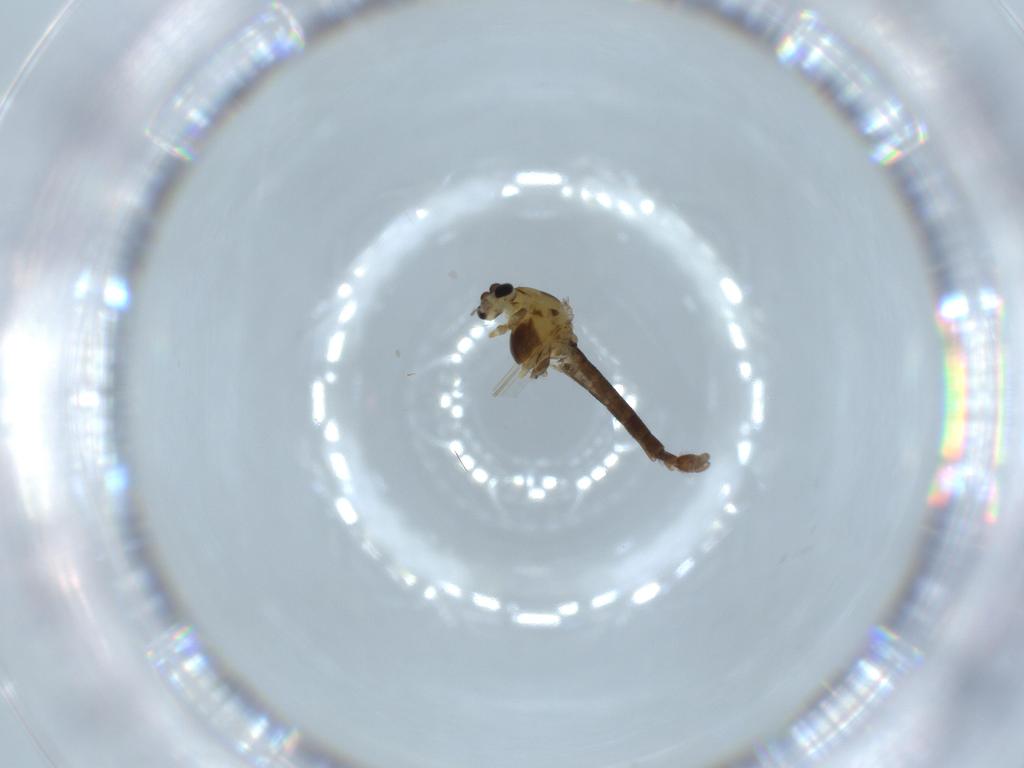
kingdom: Animalia
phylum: Arthropoda
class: Insecta
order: Diptera
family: Chironomidae
